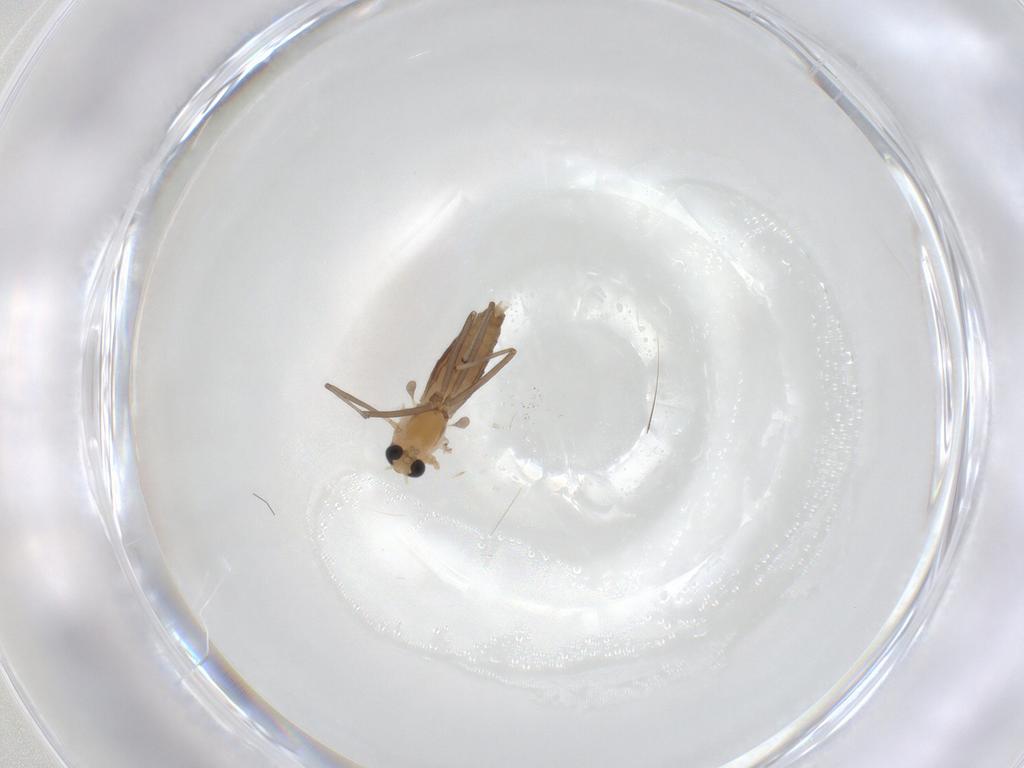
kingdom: Animalia
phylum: Arthropoda
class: Insecta
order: Diptera
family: Chironomidae
